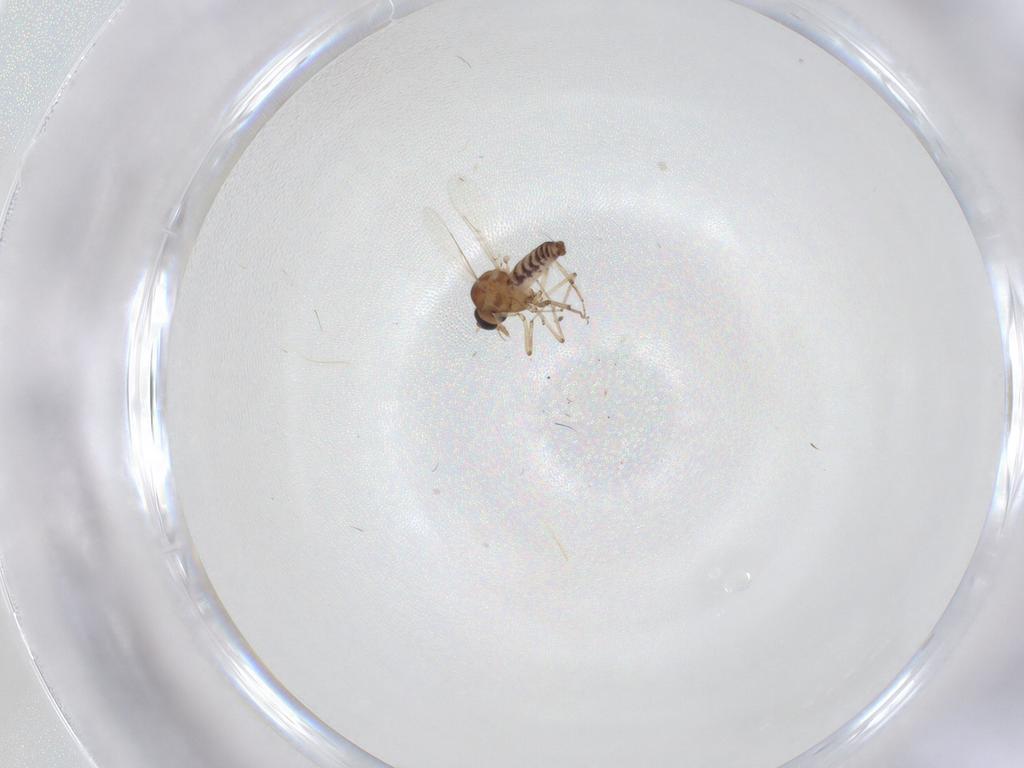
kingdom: Animalia
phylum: Arthropoda
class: Insecta
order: Diptera
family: Ceratopogonidae
